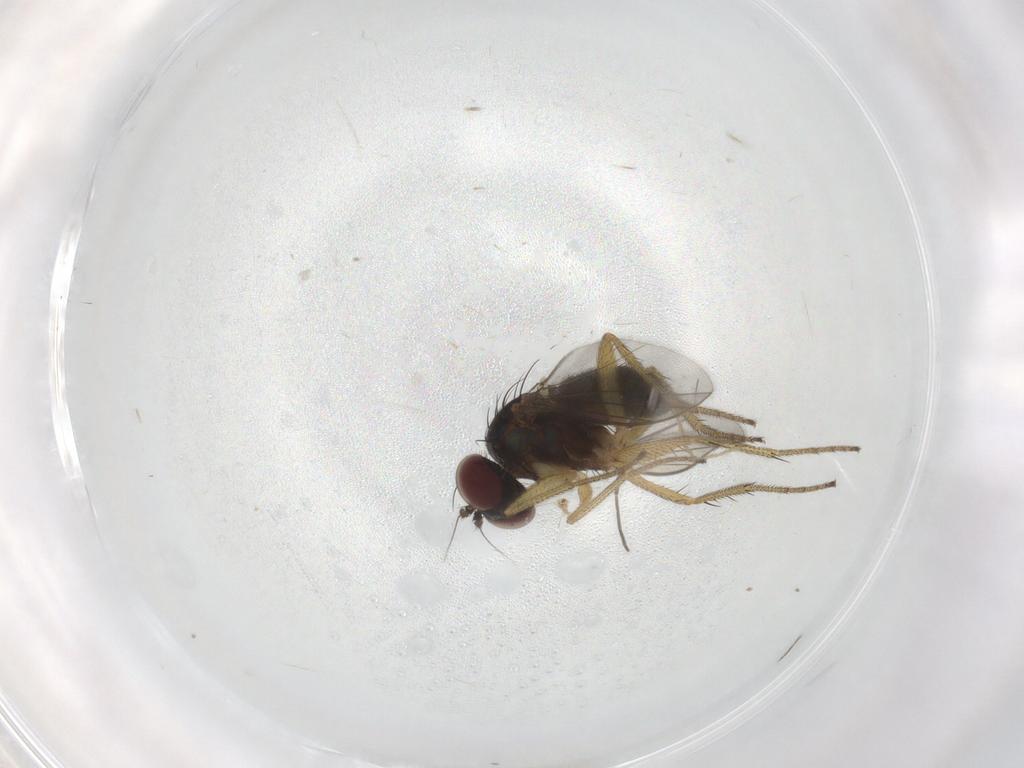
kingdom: Animalia
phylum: Arthropoda
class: Insecta
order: Diptera
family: Chironomidae
